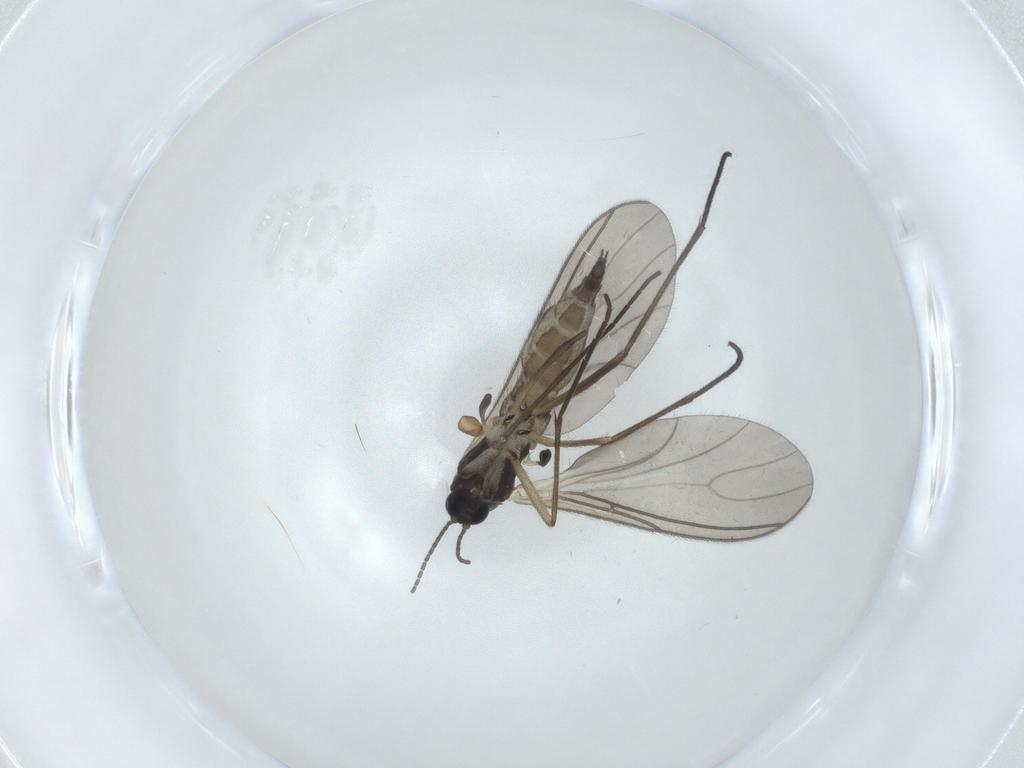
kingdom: Animalia
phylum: Arthropoda
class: Insecta
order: Diptera
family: Sciaridae
